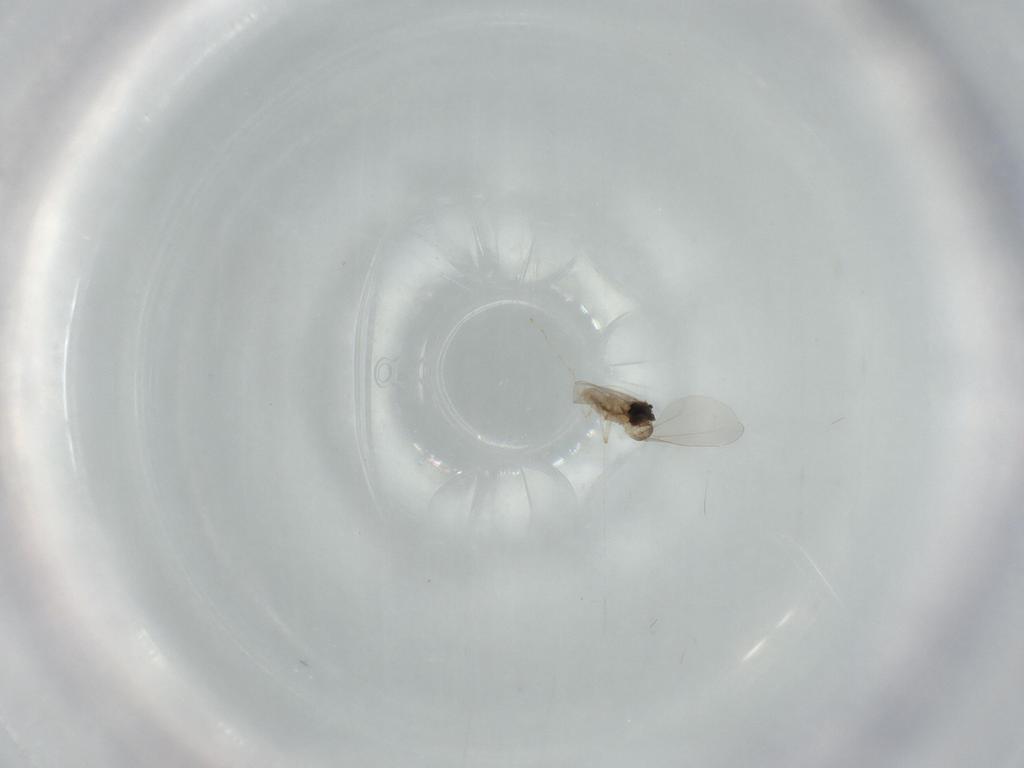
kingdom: Animalia
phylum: Arthropoda
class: Insecta
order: Diptera
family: Cecidomyiidae
